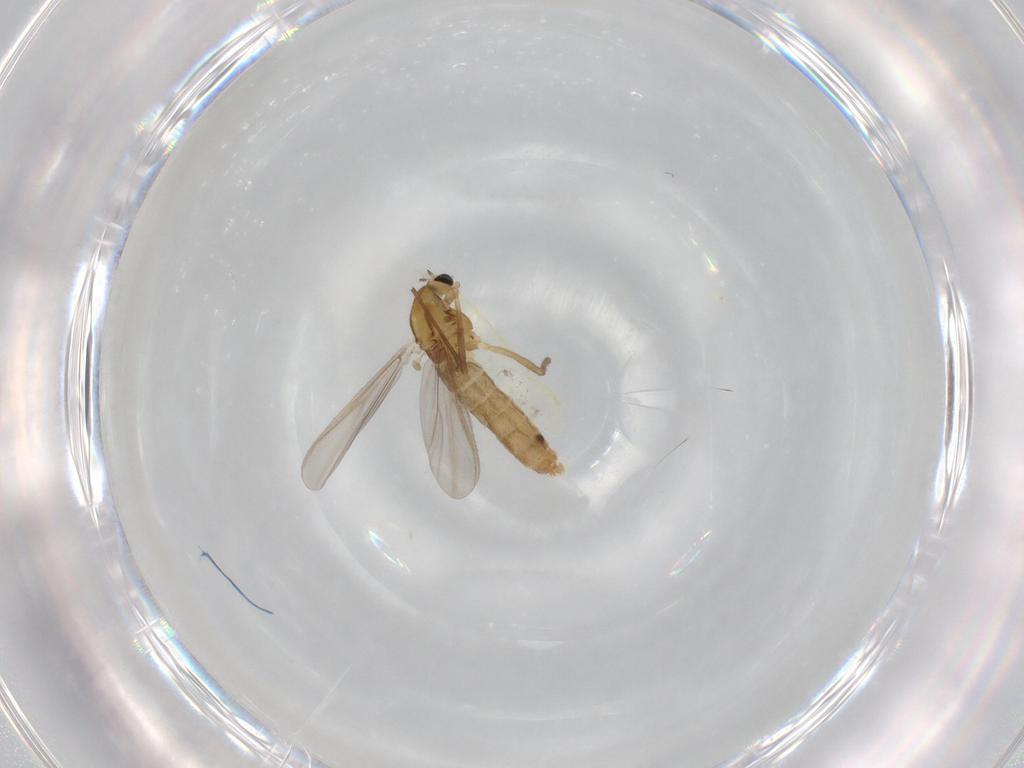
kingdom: Animalia
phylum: Arthropoda
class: Insecta
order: Diptera
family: Chironomidae
